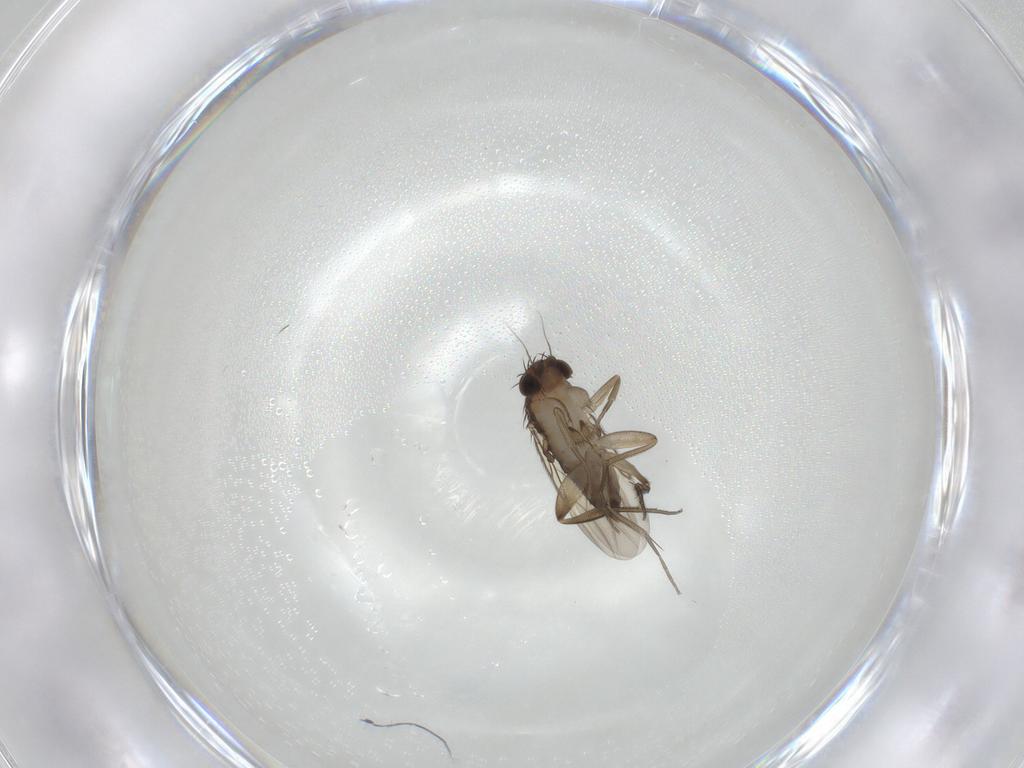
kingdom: Animalia
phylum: Arthropoda
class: Insecta
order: Diptera
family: Phoridae
